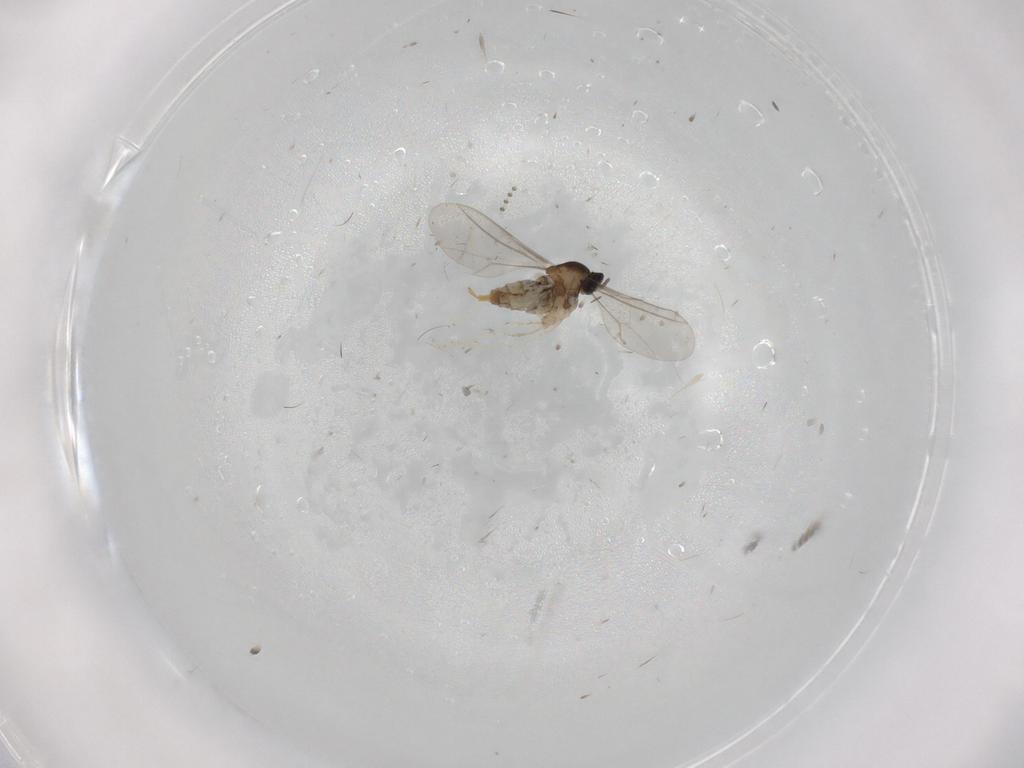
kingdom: Animalia
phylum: Arthropoda
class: Insecta
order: Diptera
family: Cecidomyiidae
